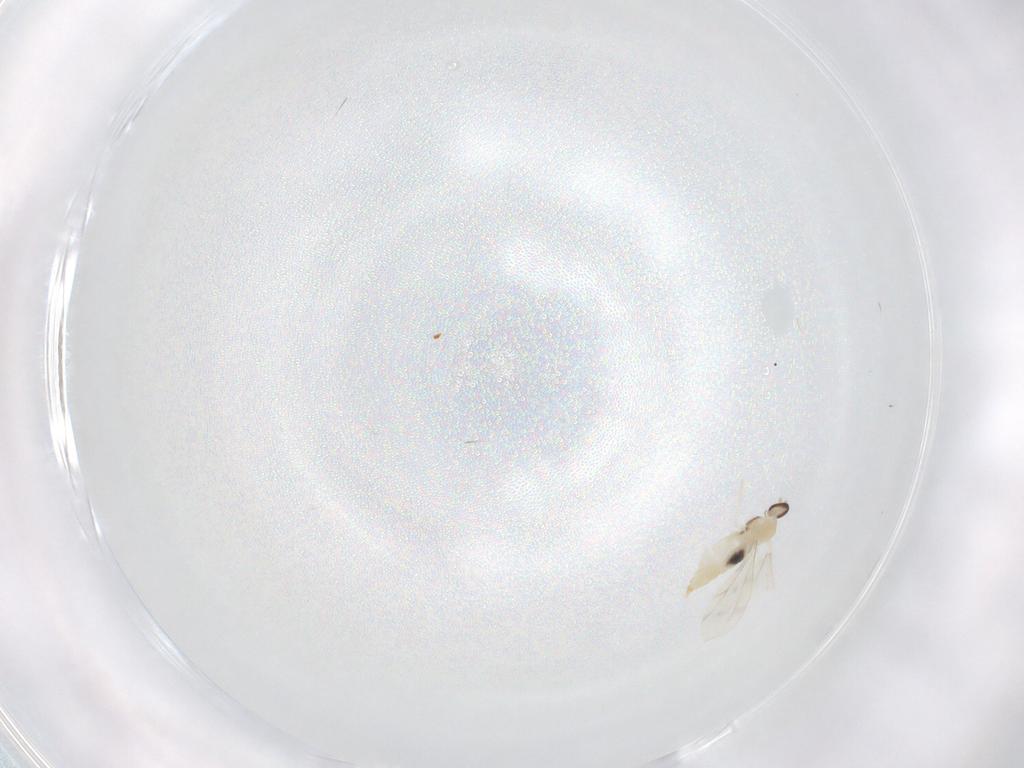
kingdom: Animalia
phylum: Arthropoda
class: Insecta
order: Diptera
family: Cecidomyiidae
